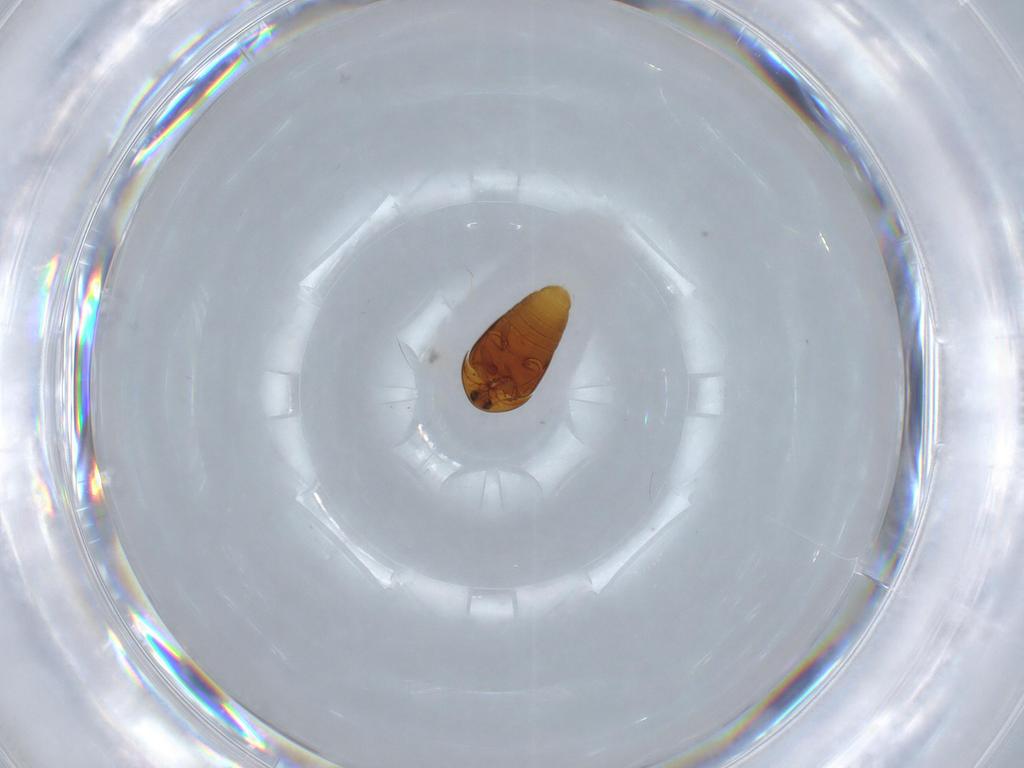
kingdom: Animalia
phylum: Arthropoda
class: Insecta
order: Coleoptera
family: Corylophidae
